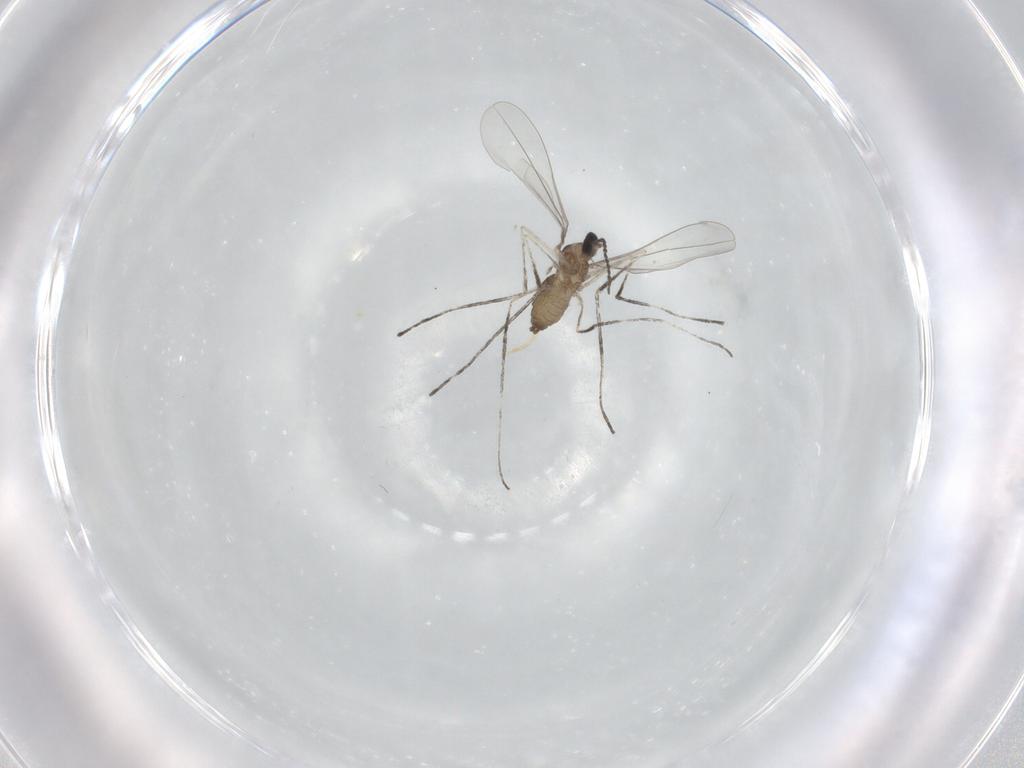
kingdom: Animalia
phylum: Arthropoda
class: Insecta
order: Diptera
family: Cecidomyiidae
